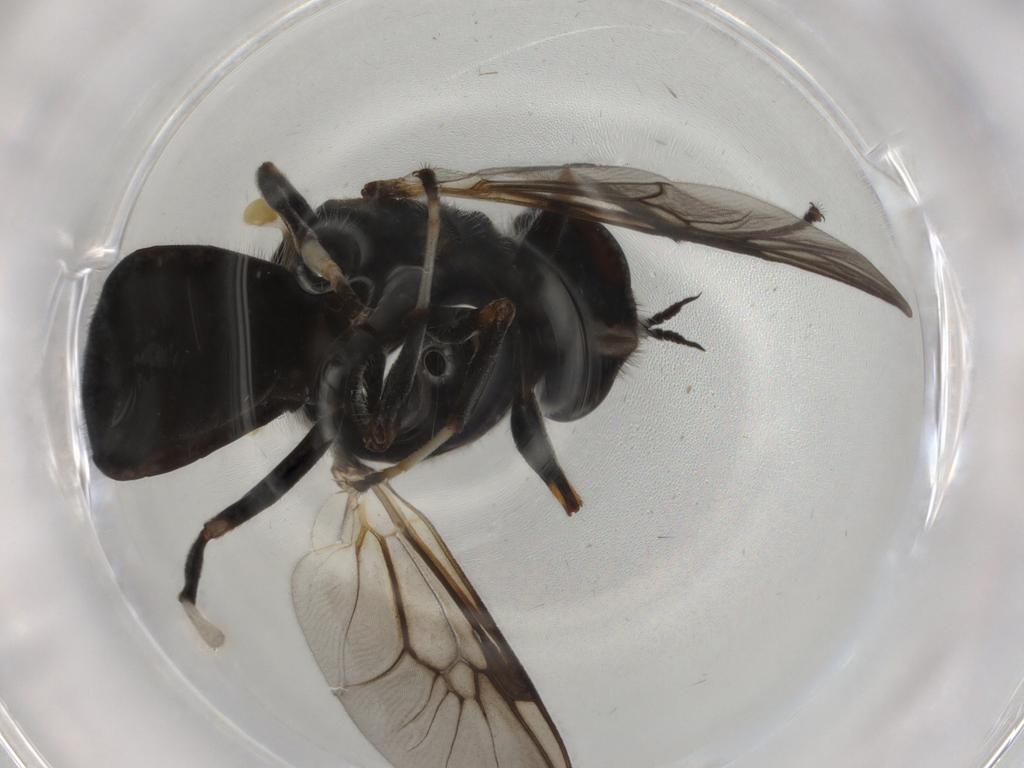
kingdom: Animalia
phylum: Arthropoda
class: Insecta
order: Diptera
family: Chironomidae
